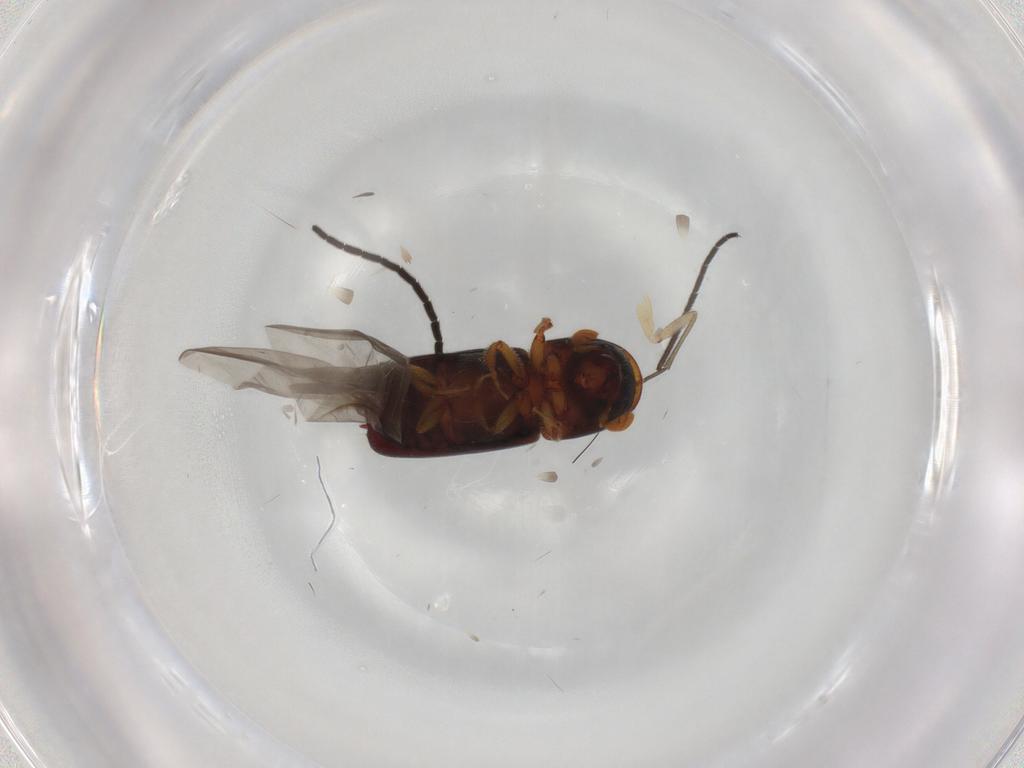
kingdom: Animalia
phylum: Arthropoda
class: Insecta
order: Coleoptera
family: Curculionidae
